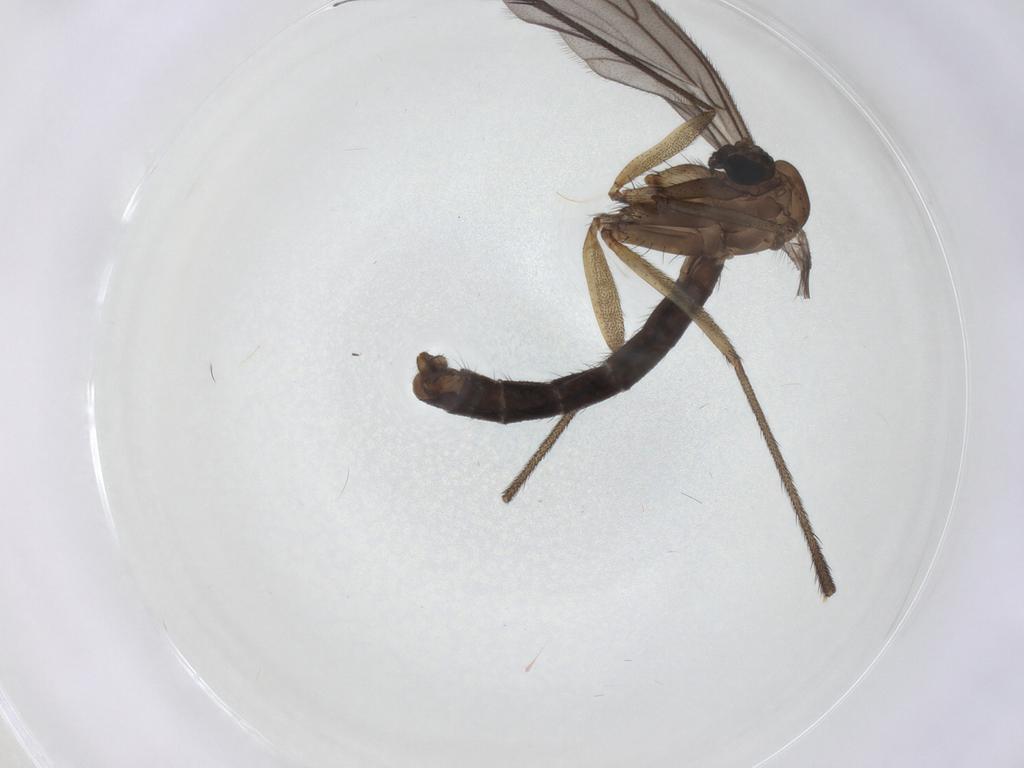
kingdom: Animalia
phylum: Arthropoda
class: Insecta
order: Diptera
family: Ditomyiidae
